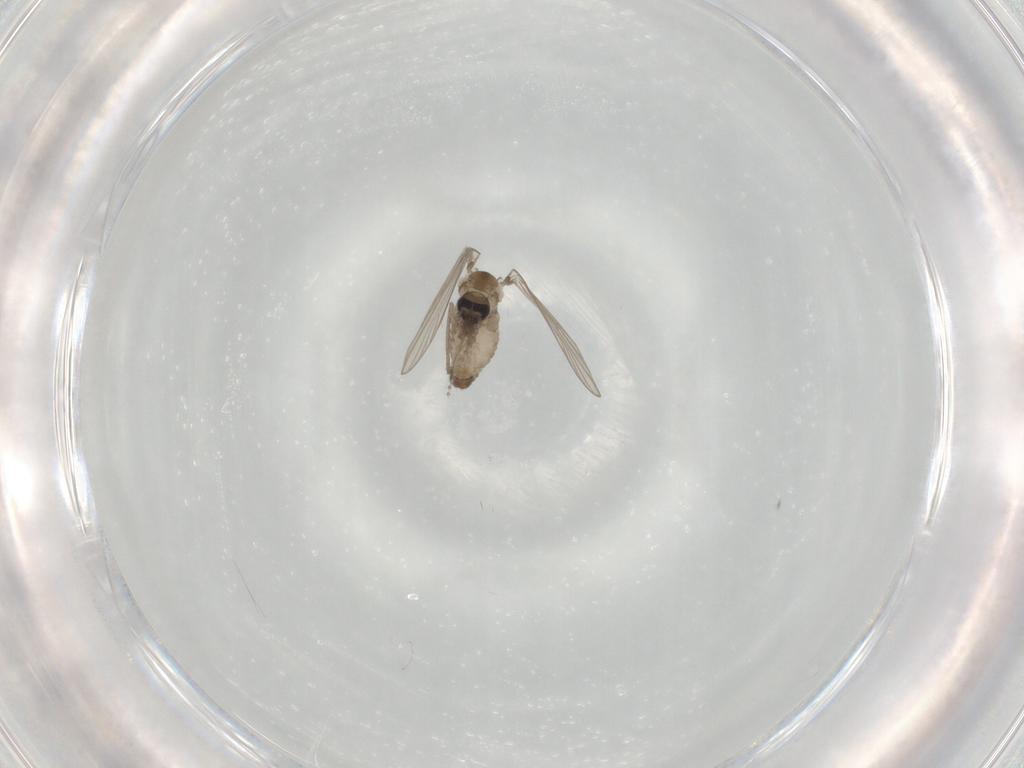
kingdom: Animalia
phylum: Arthropoda
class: Insecta
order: Diptera
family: Psychodidae
